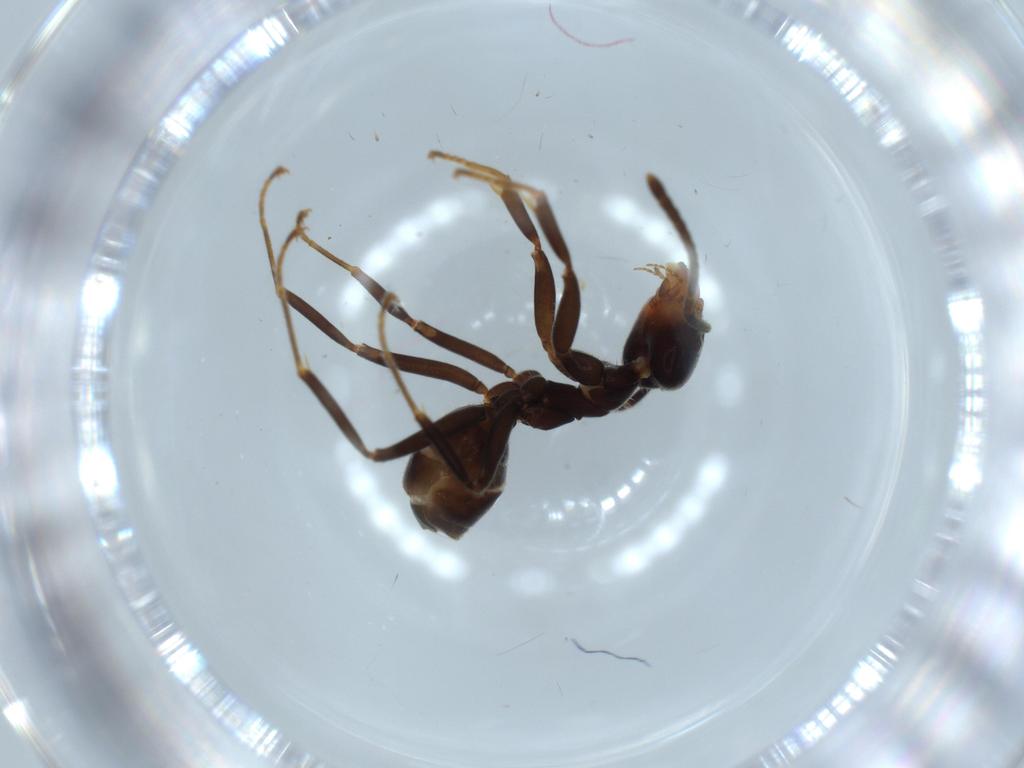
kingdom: Animalia
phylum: Arthropoda
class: Insecta
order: Hymenoptera
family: Formicidae
